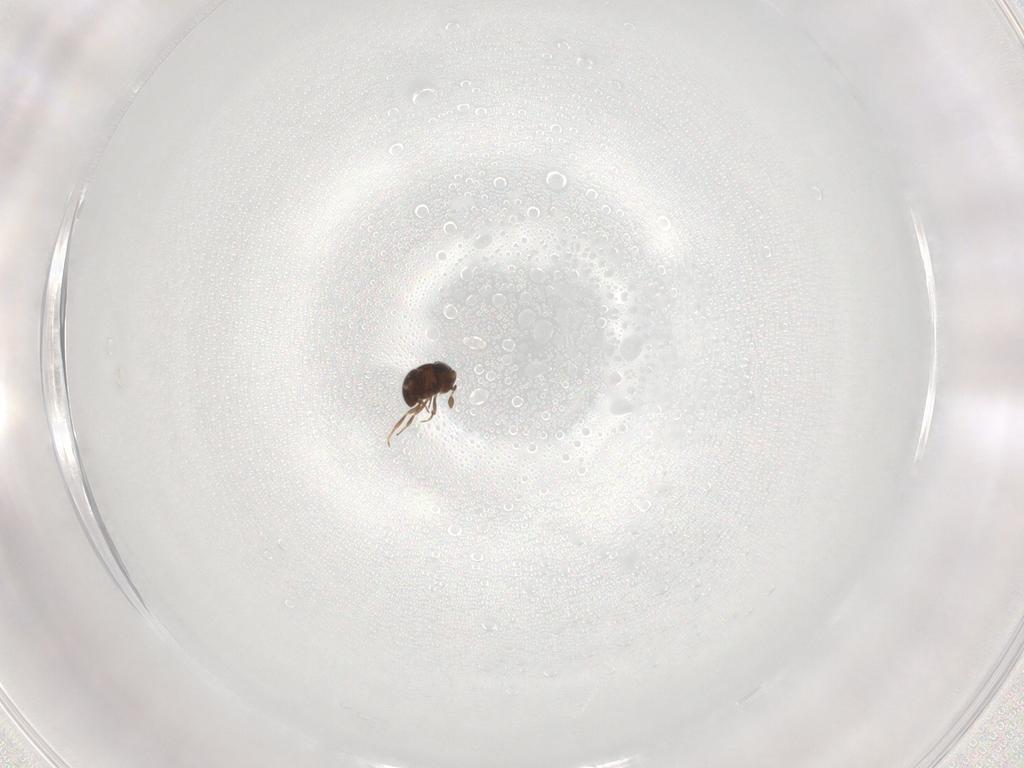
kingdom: Animalia
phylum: Arthropoda
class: Insecta
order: Hymenoptera
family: Scelionidae
